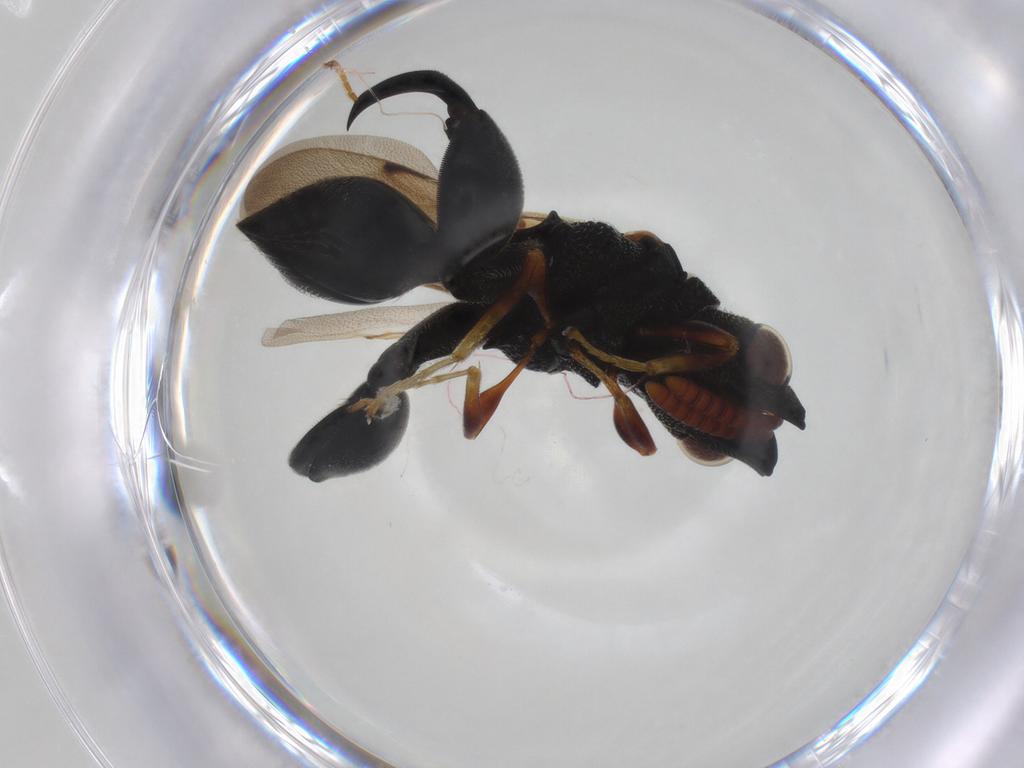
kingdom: Animalia
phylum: Arthropoda
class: Insecta
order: Hymenoptera
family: Chalcididae
